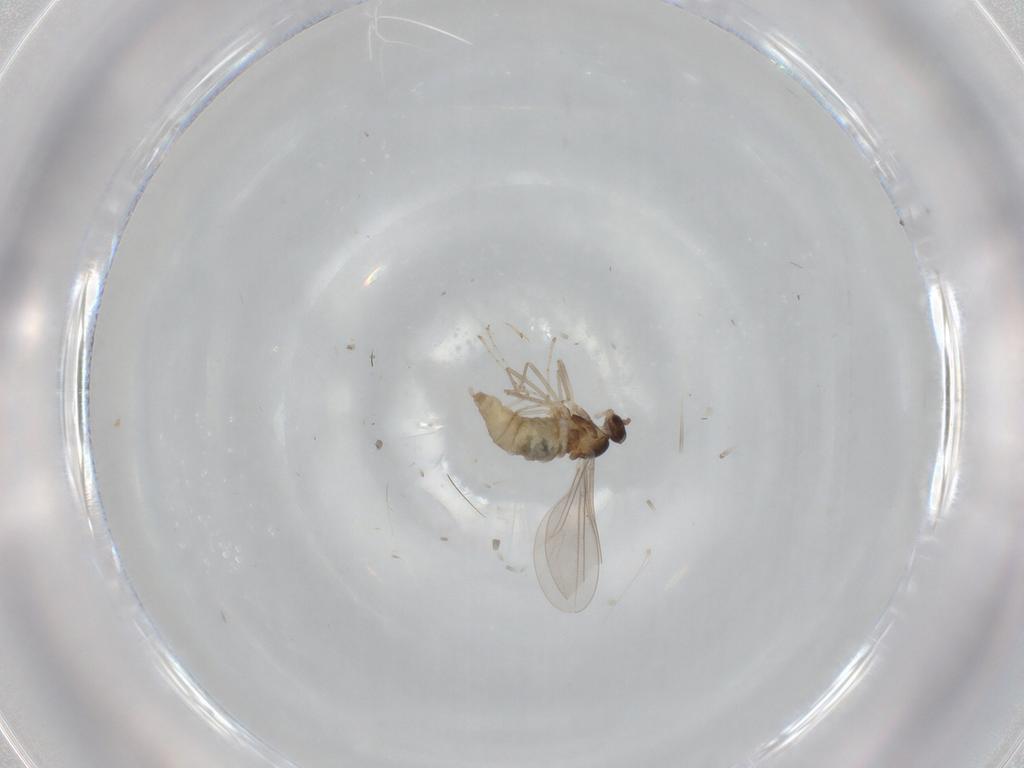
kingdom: Animalia
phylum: Arthropoda
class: Insecta
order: Diptera
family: Cecidomyiidae
